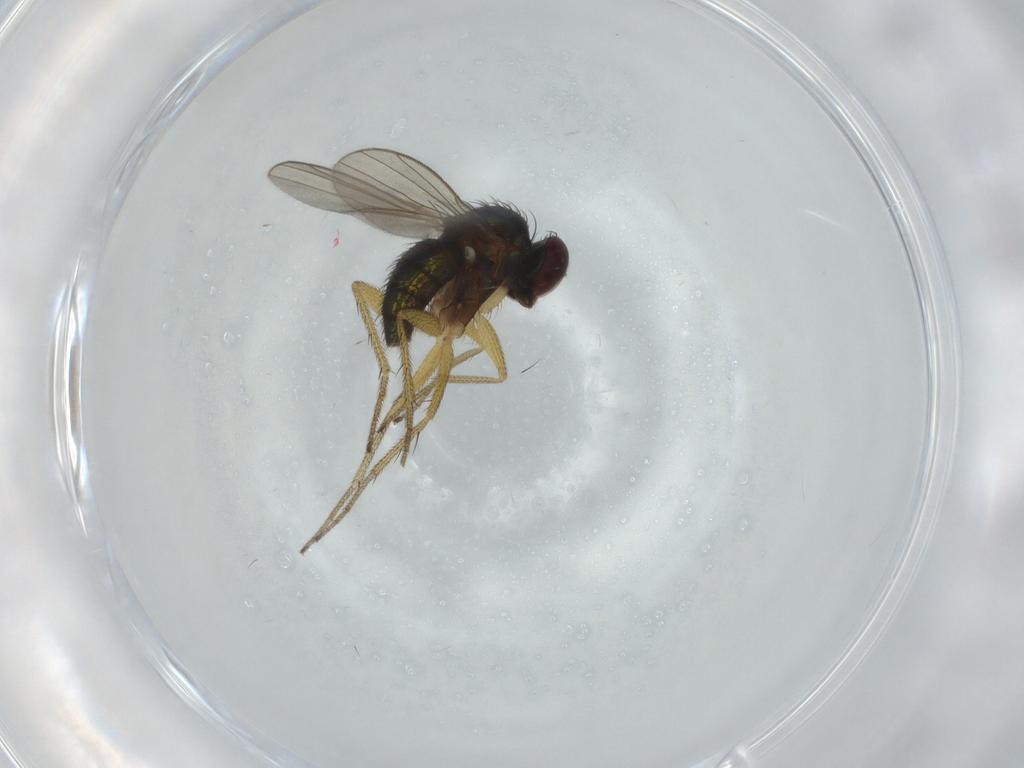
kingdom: Animalia
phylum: Arthropoda
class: Insecta
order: Diptera
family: Dolichopodidae
